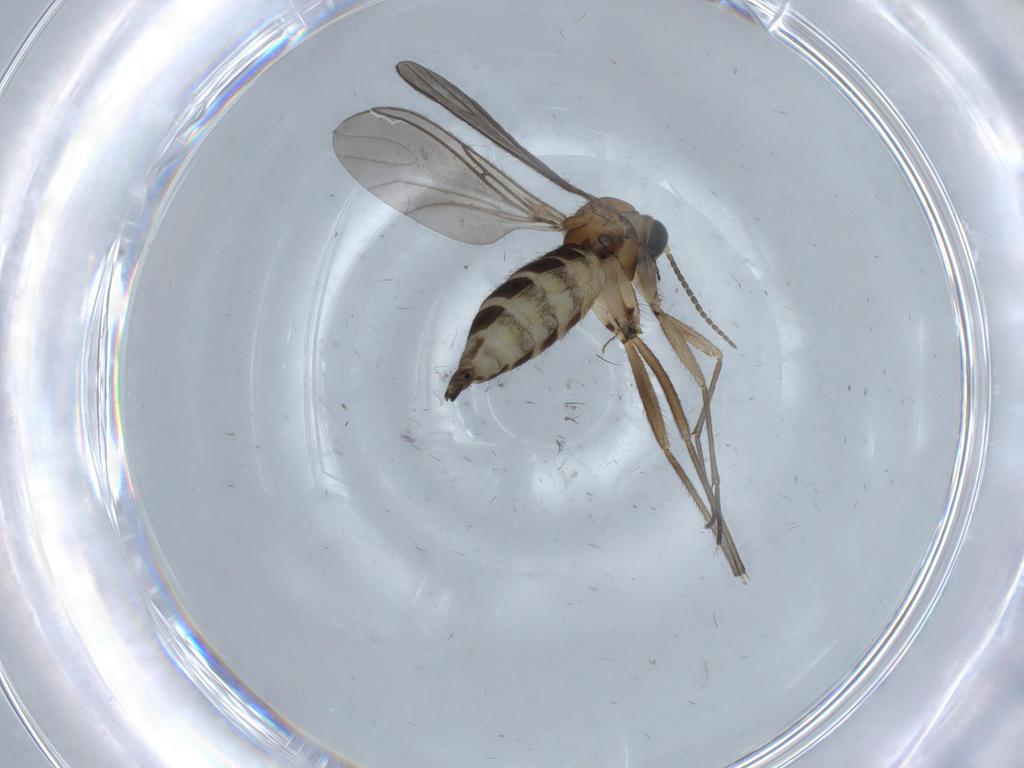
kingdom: Animalia
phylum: Arthropoda
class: Insecta
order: Diptera
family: Sciaridae
